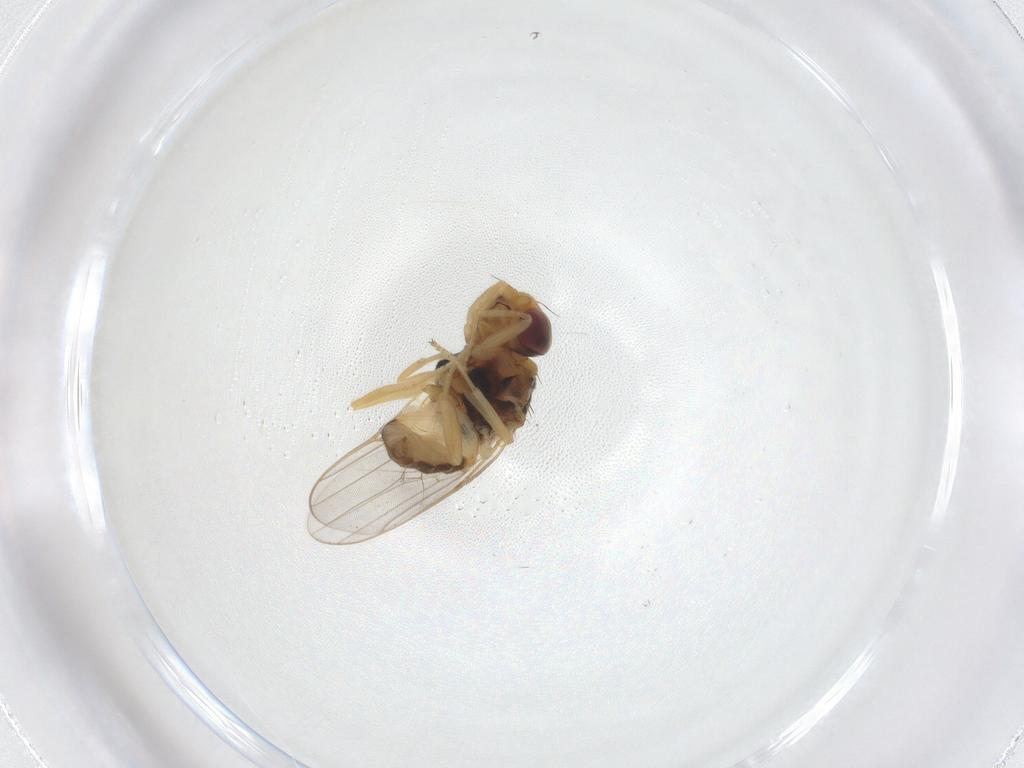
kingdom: Animalia
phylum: Arthropoda
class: Insecta
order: Diptera
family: Chloropidae
